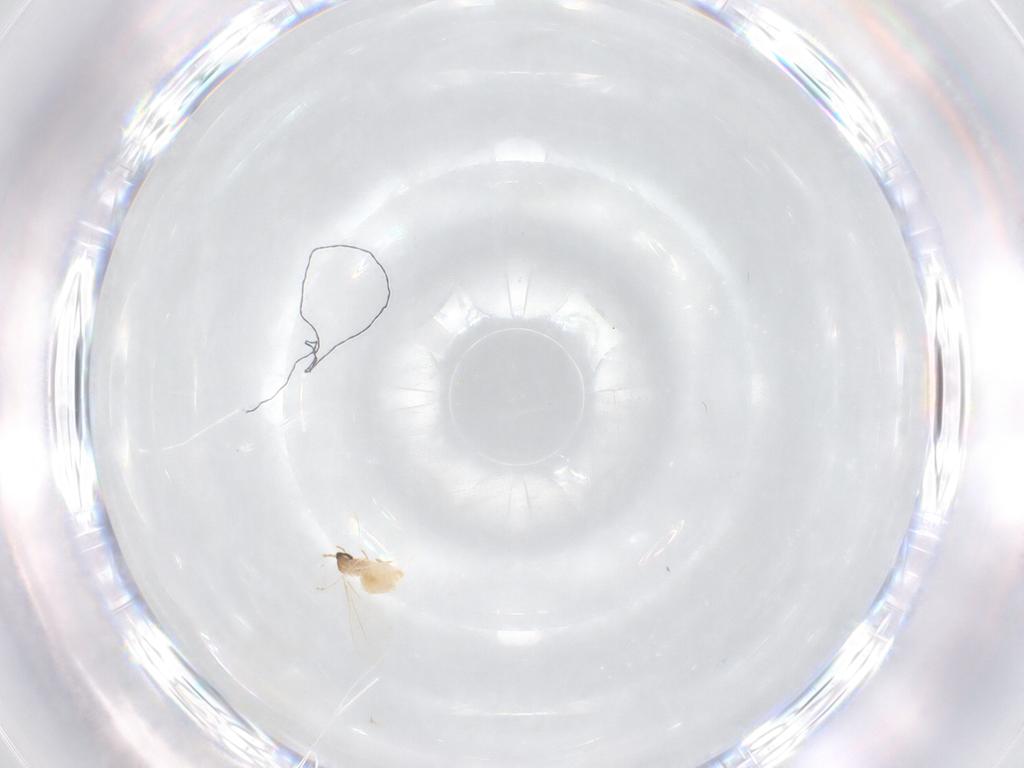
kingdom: Animalia
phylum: Arthropoda
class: Insecta
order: Diptera
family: Cecidomyiidae
